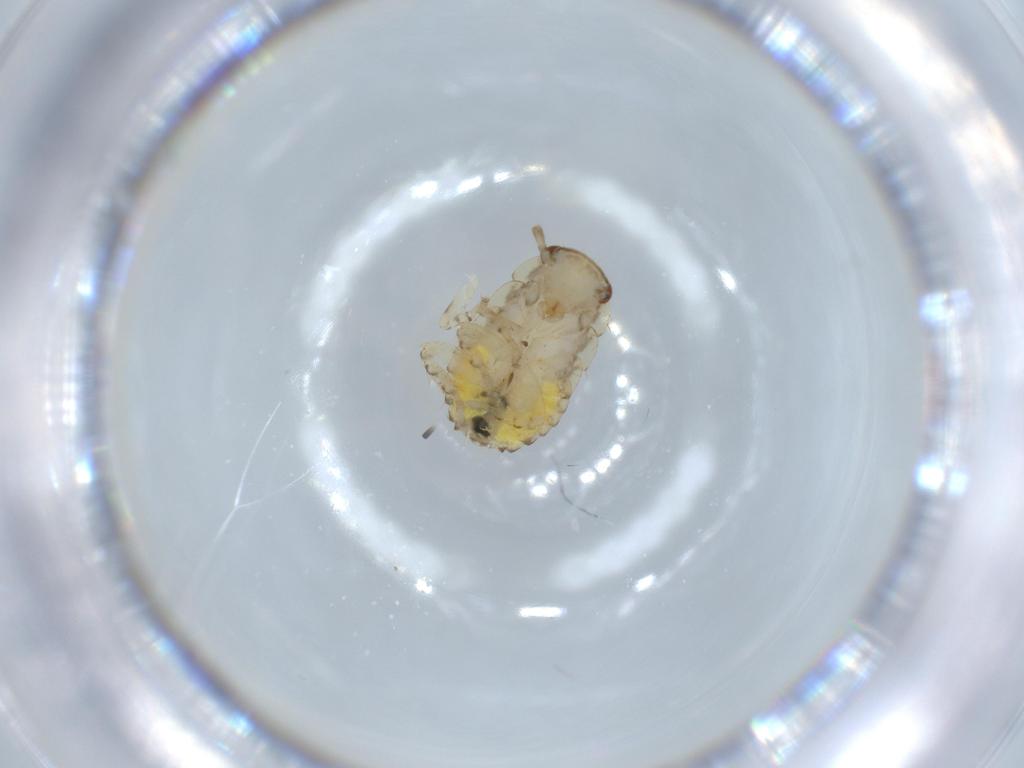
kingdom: Animalia
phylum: Arthropoda
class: Insecta
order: Blattodea
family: Ectobiidae
